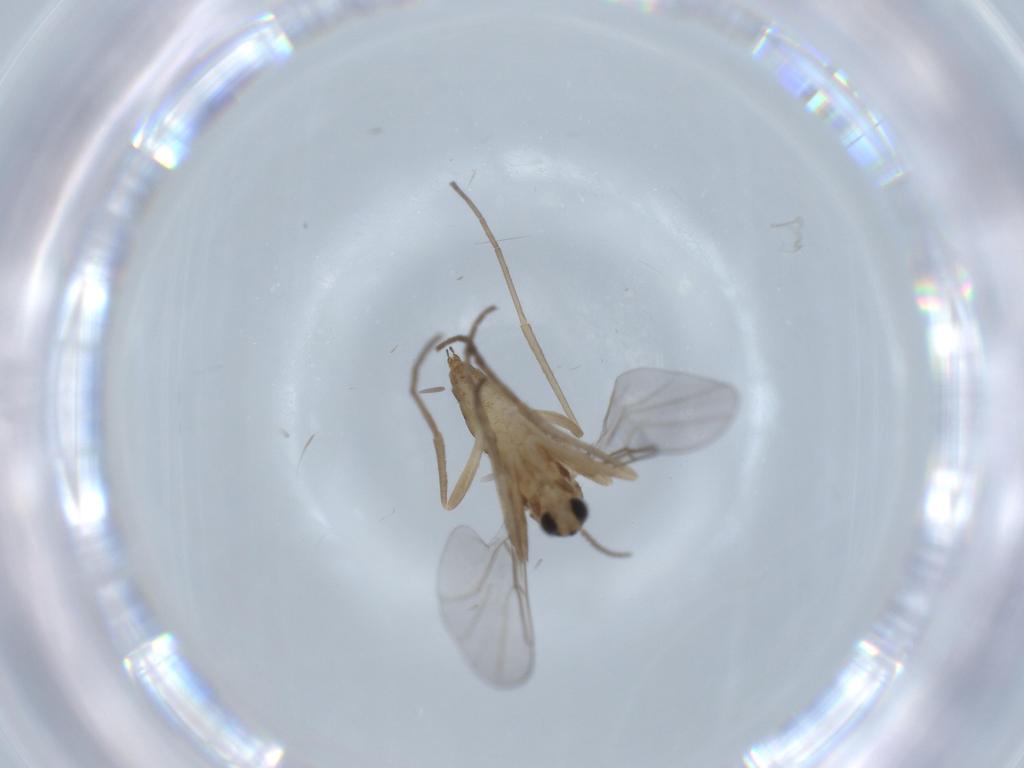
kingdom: Animalia
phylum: Arthropoda
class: Insecta
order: Diptera
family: Cecidomyiidae
